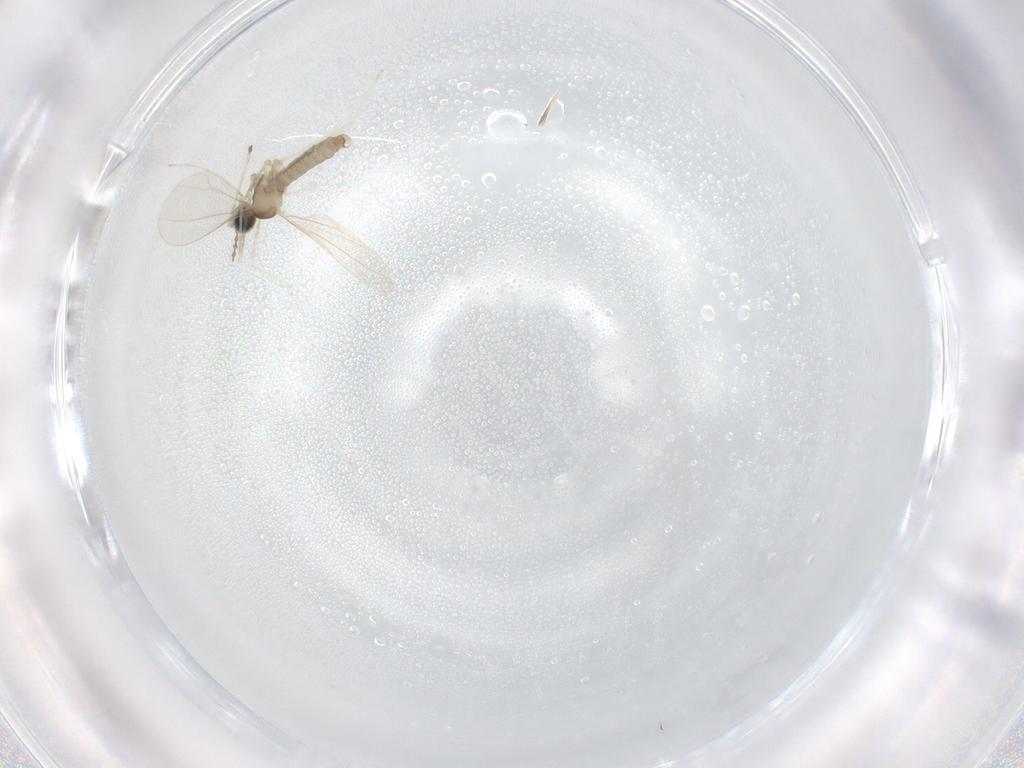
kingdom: Animalia
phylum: Arthropoda
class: Insecta
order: Diptera
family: Cecidomyiidae
